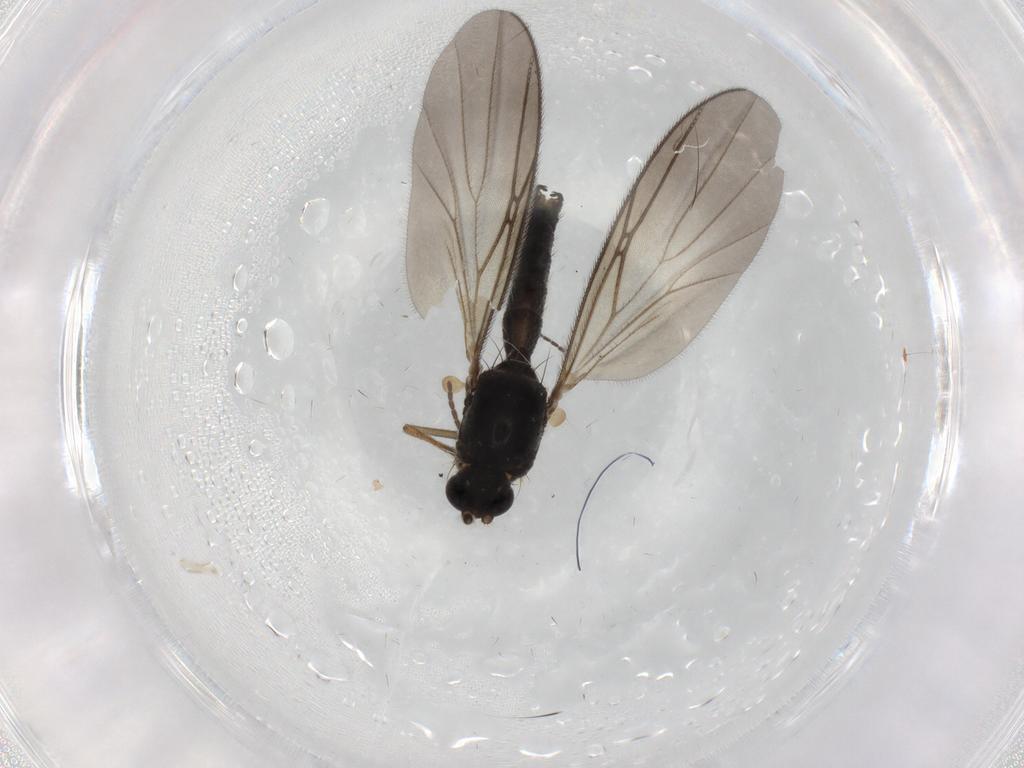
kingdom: Animalia
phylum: Arthropoda
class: Insecta
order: Diptera
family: Mycetophilidae
